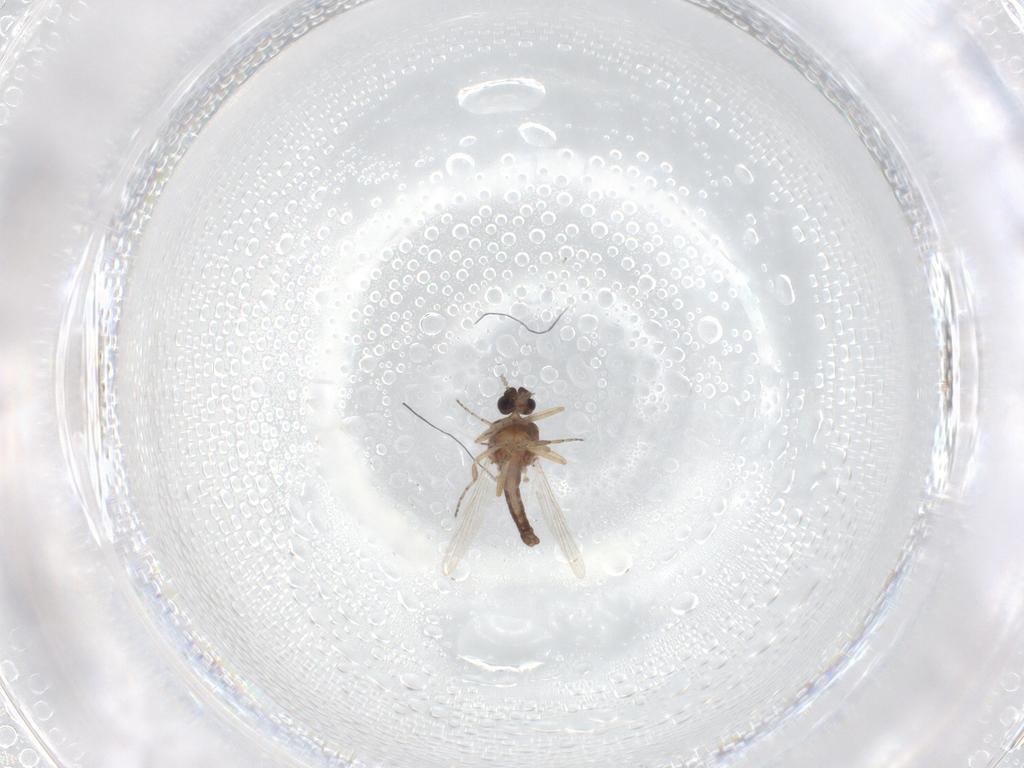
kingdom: Animalia
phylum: Arthropoda
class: Insecta
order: Diptera
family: Ceratopogonidae
